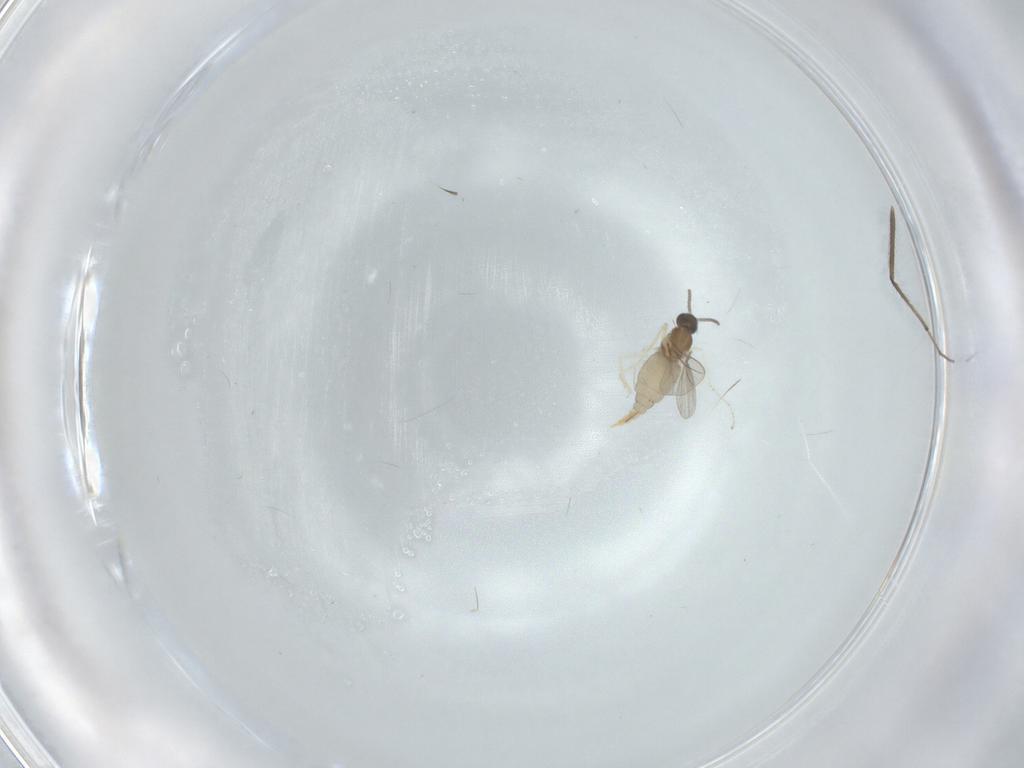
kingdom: Animalia
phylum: Arthropoda
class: Insecta
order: Diptera
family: Cecidomyiidae
